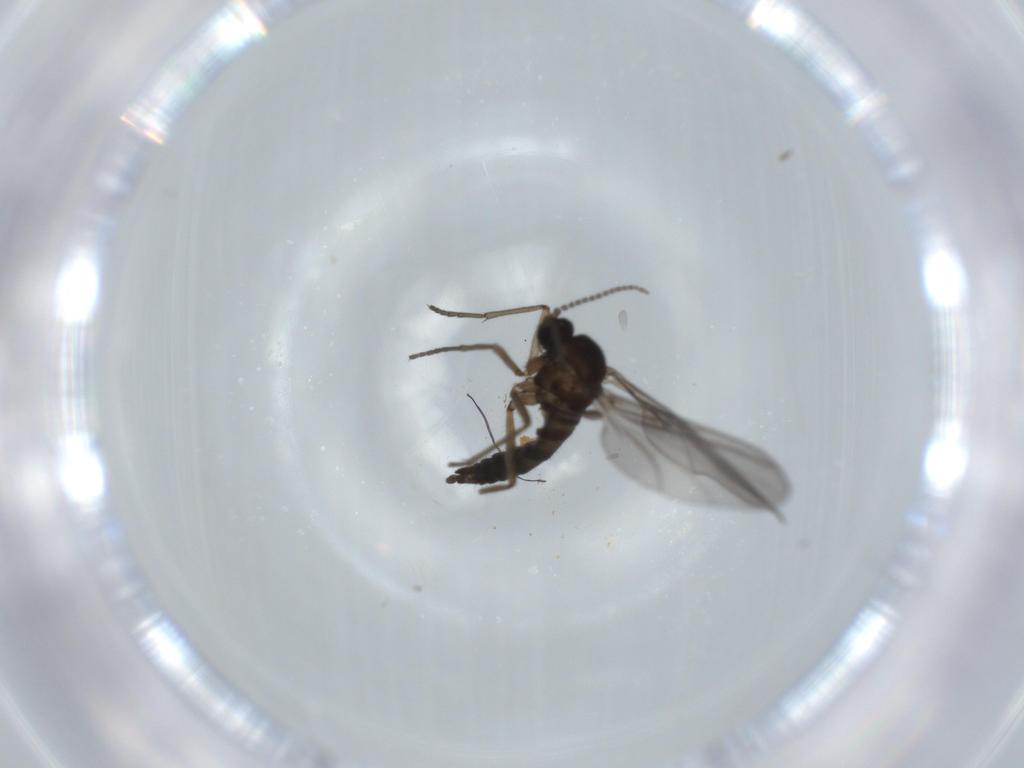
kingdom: Animalia
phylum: Arthropoda
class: Insecta
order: Diptera
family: Sciaridae
